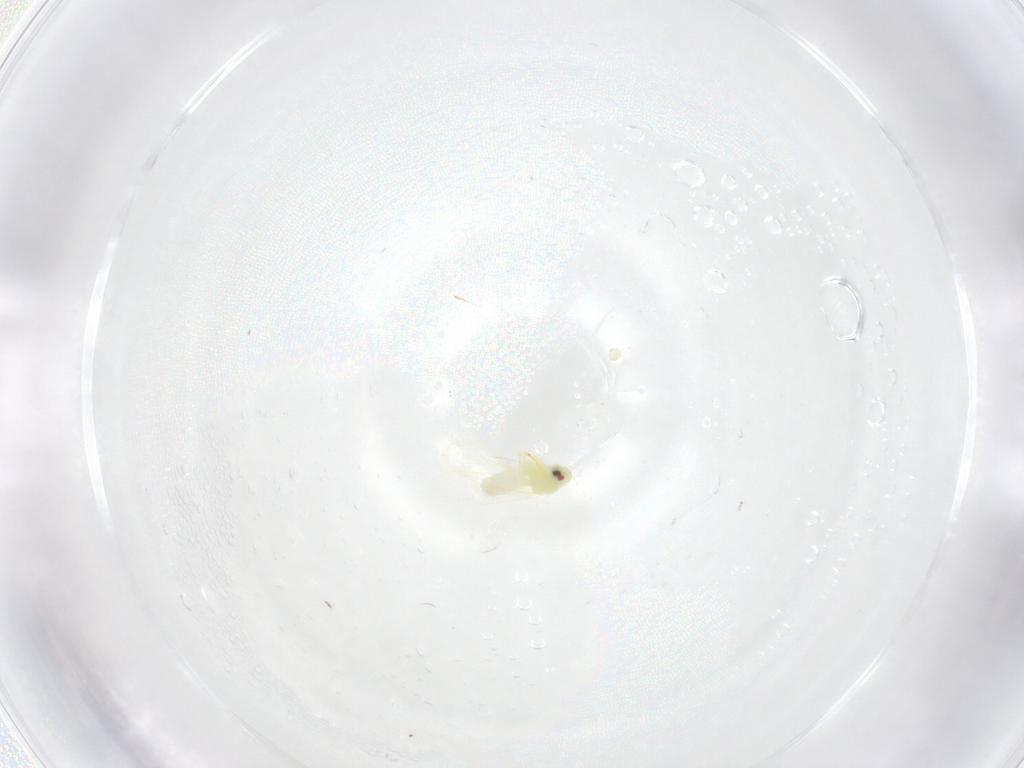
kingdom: Animalia
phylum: Arthropoda
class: Insecta
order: Hemiptera
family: Aleyrodidae
